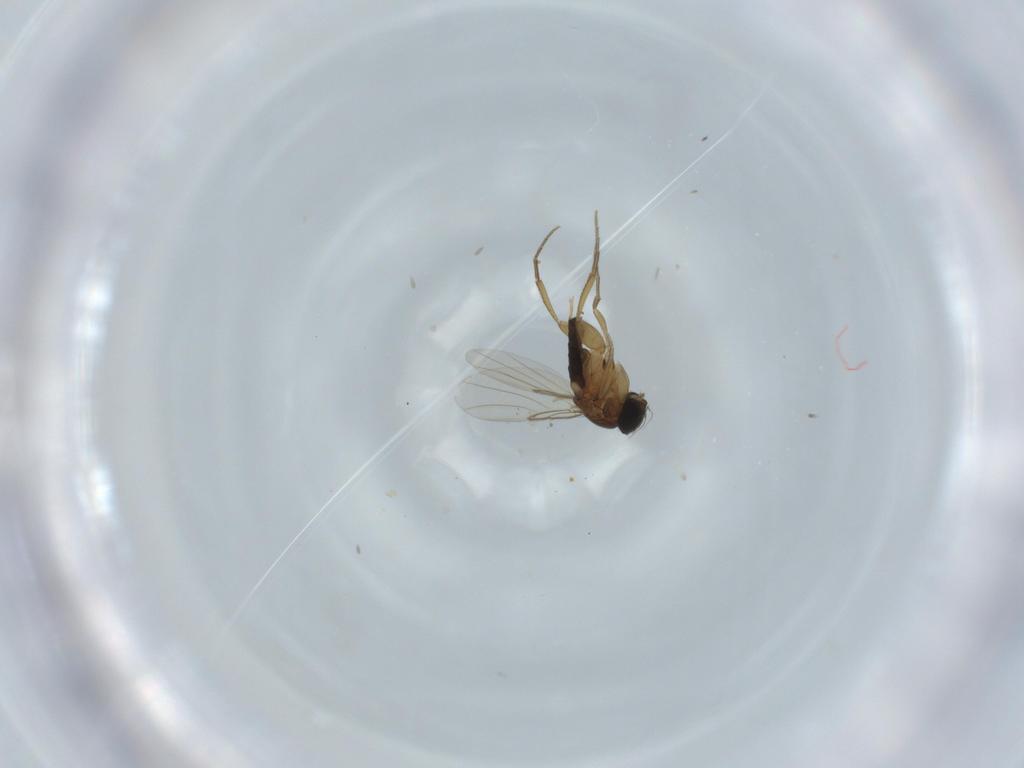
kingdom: Animalia
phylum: Arthropoda
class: Insecta
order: Diptera
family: Phoridae
